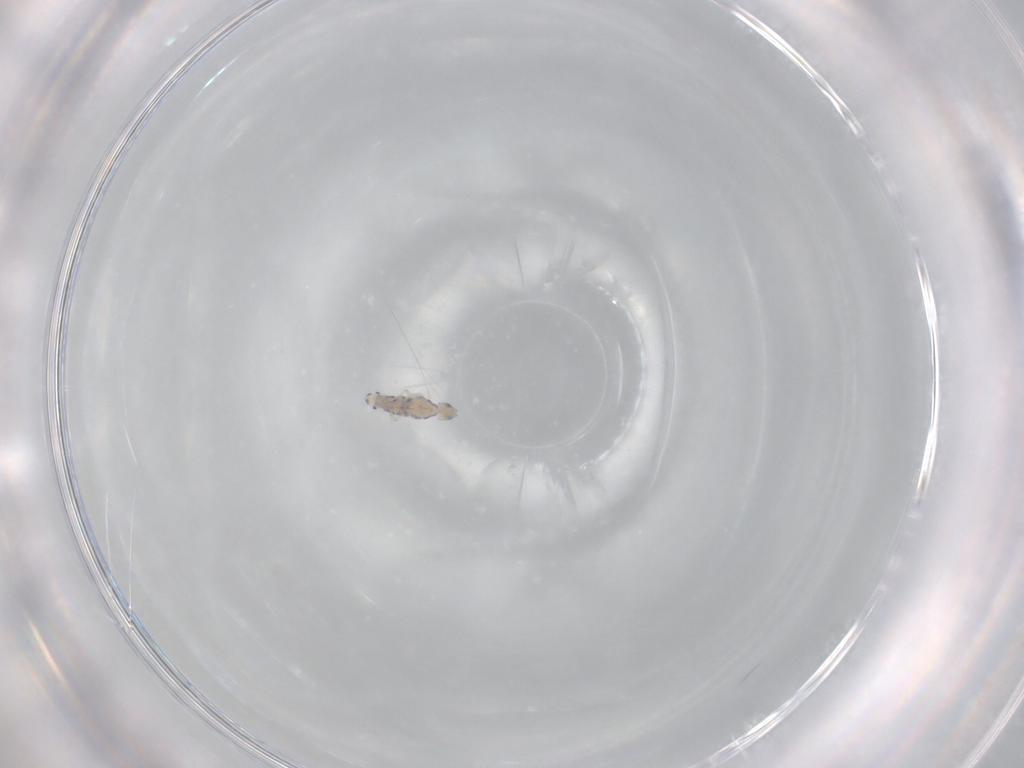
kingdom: Animalia
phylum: Arthropoda
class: Collembola
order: Entomobryomorpha
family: Entomobryidae
